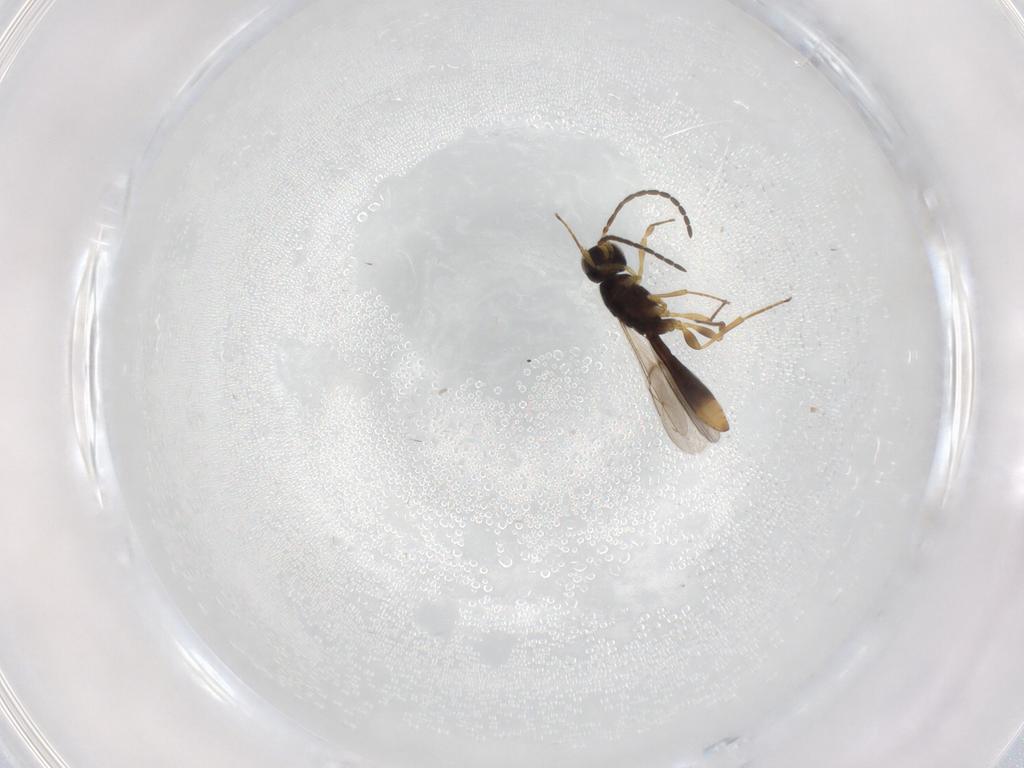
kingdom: Animalia
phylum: Arthropoda
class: Insecta
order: Hymenoptera
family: Scelionidae
